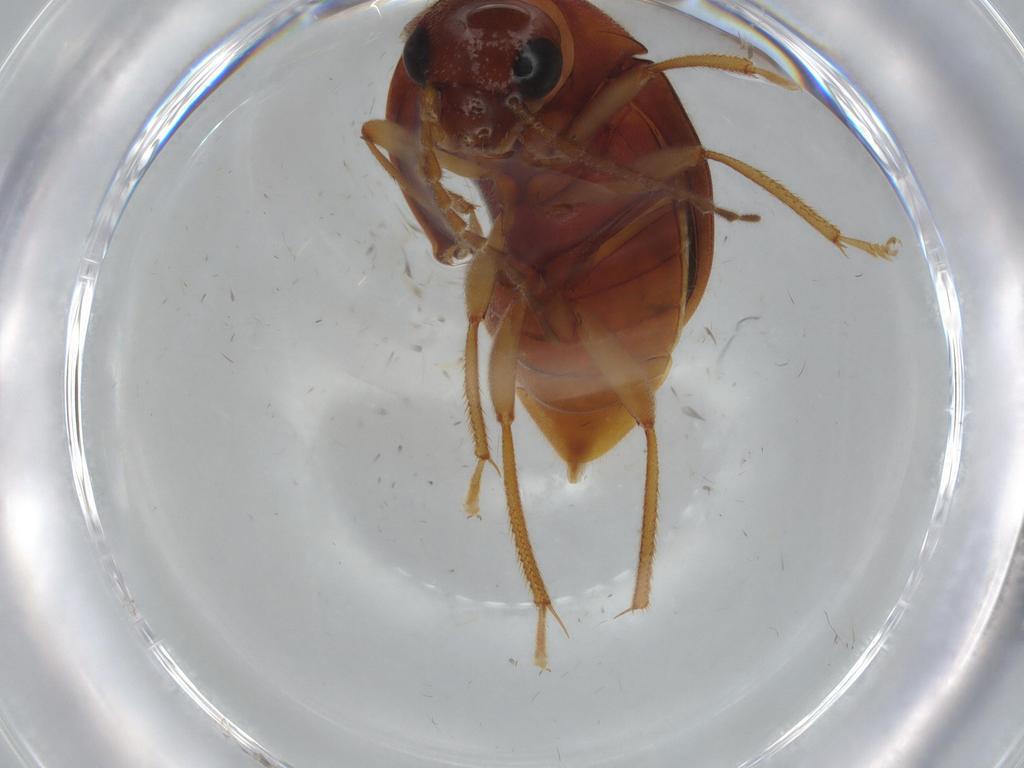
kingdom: Animalia
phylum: Arthropoda
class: Insecta
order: Coleoptera
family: Ptilodactylidae
